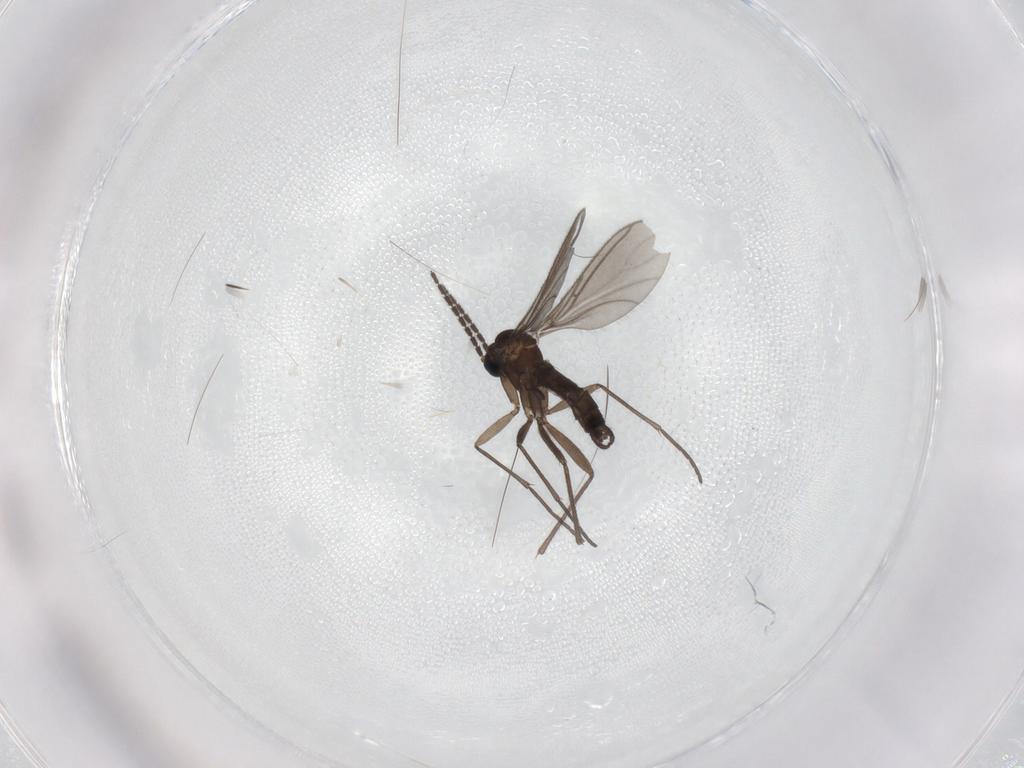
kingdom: Animalia
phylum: Arthropoda
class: Insecta
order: Diptera
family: Sciaridae
